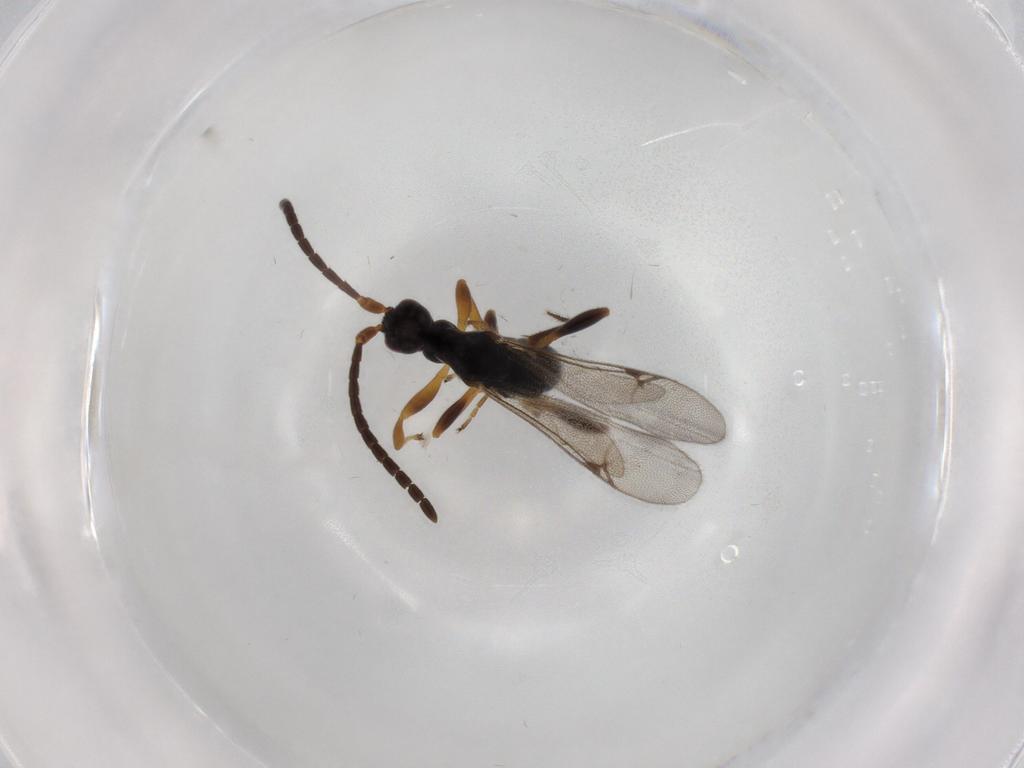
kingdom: Animalia
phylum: Arthropoda
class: Insecta
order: Hymenoptera
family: Proctotrupidae
